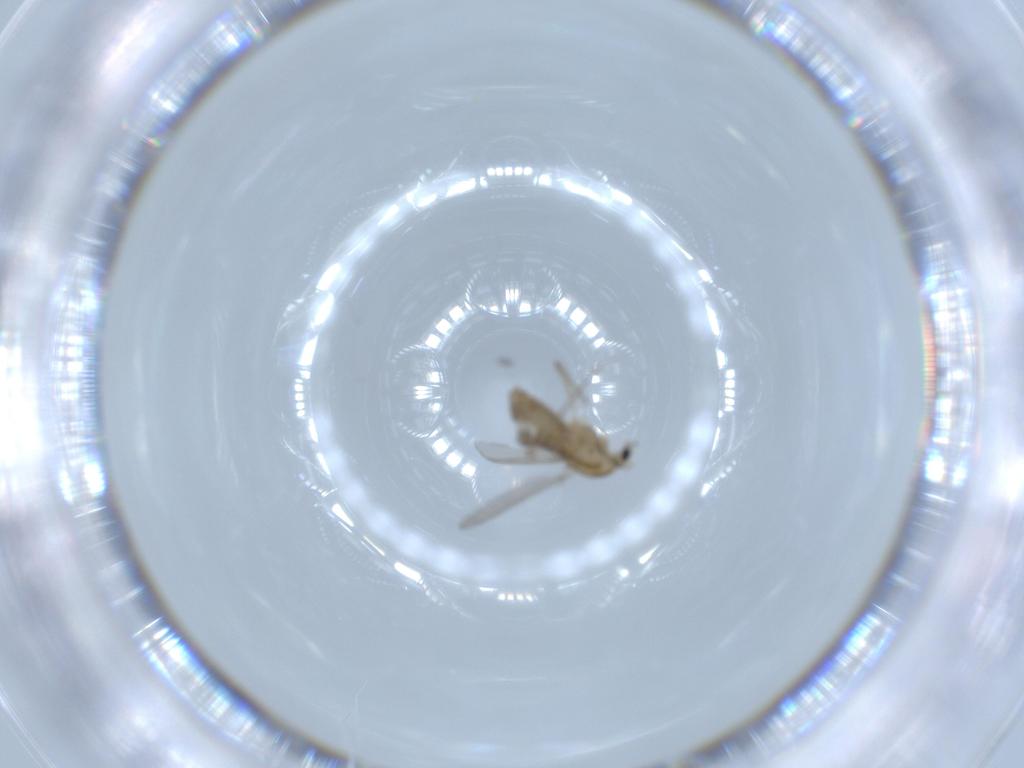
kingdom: Animalia
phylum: Arthropoda
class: Insecta
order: Diptera
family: Chironomidae
